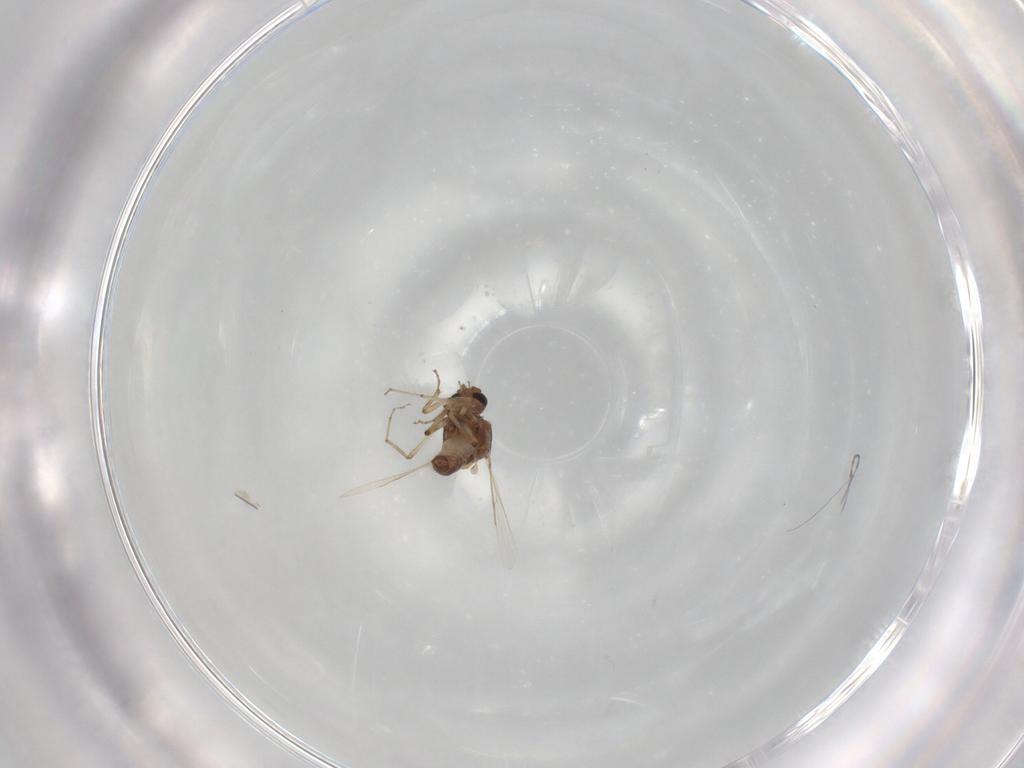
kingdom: Animalia
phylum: Arthropoda
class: Insecta
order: Diptera
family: Ceratopogonidae
